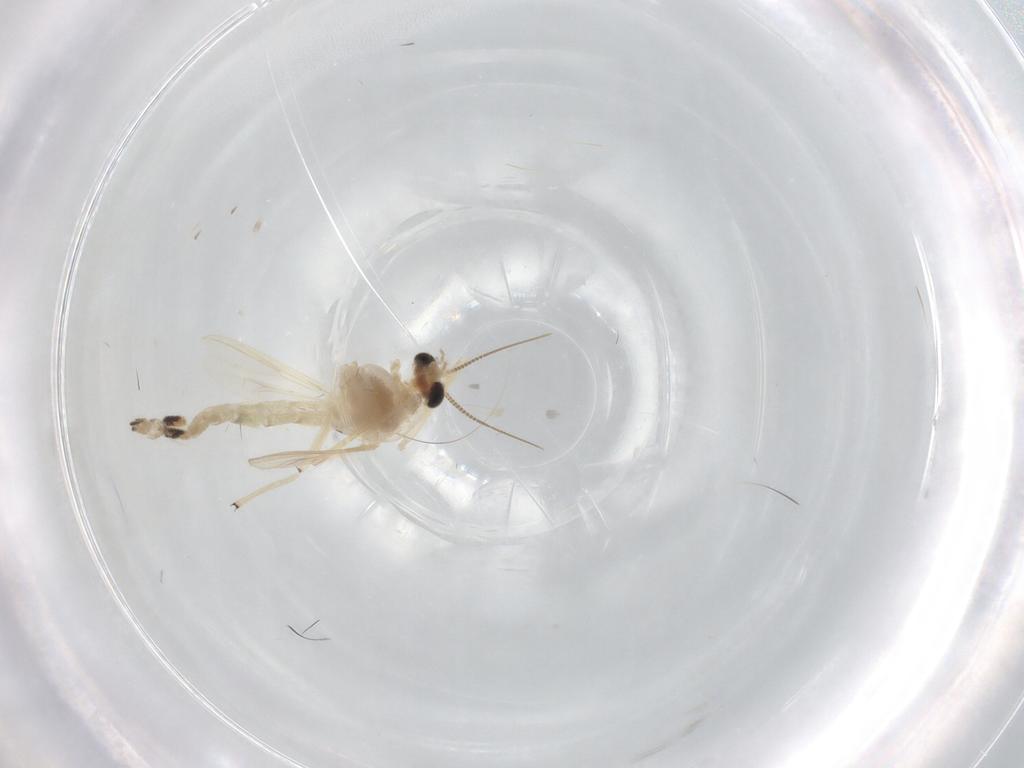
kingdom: Animalia
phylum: Arthropoda
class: Insecta
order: Diptera
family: Chironomidae
